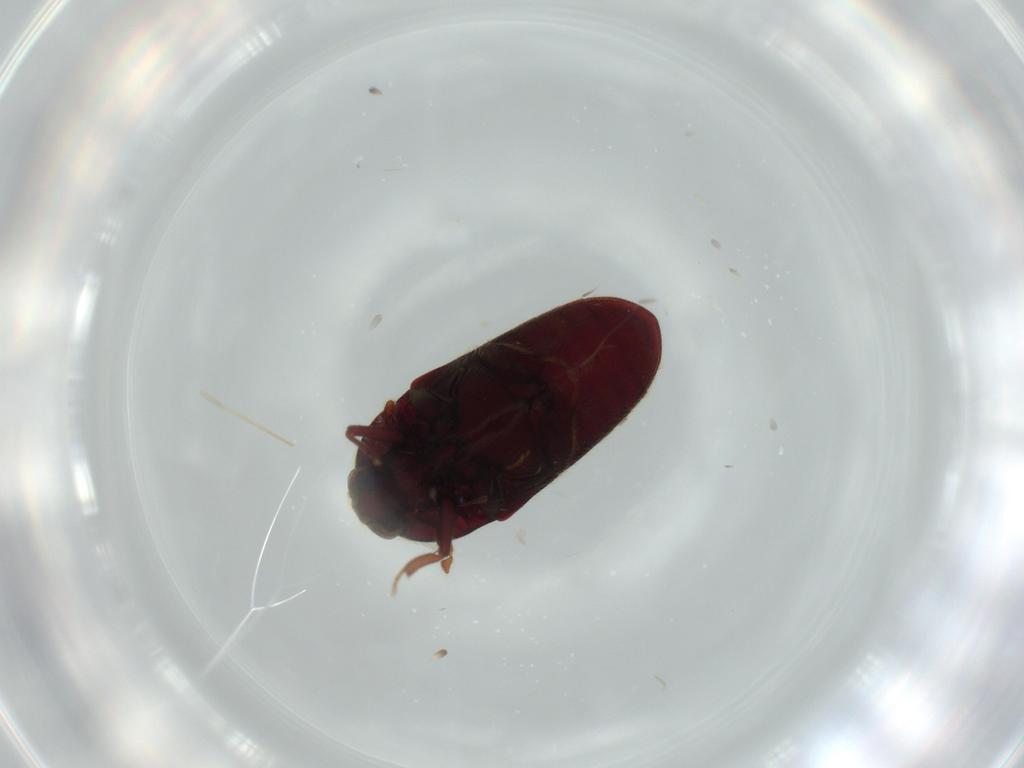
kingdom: Animalia
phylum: Arthropoda
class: Insecta
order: Coleoptera
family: Throscidae
